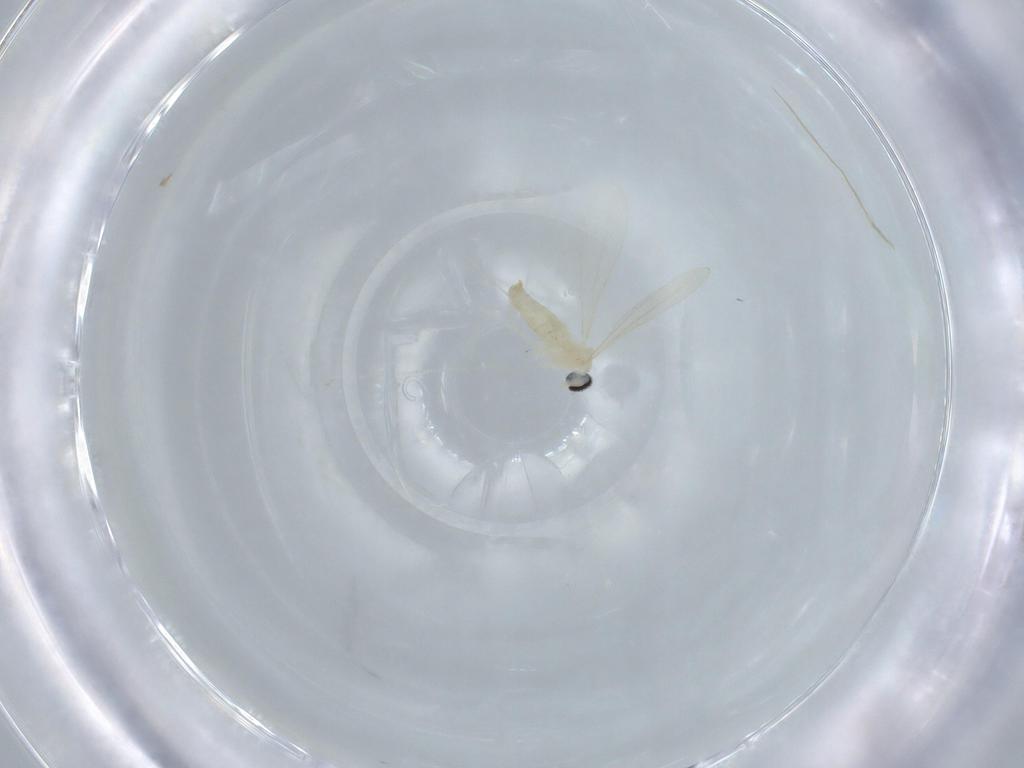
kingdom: Animalia
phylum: Arthropoda
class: Insecta
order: Diptera
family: Cecidomyiidae
